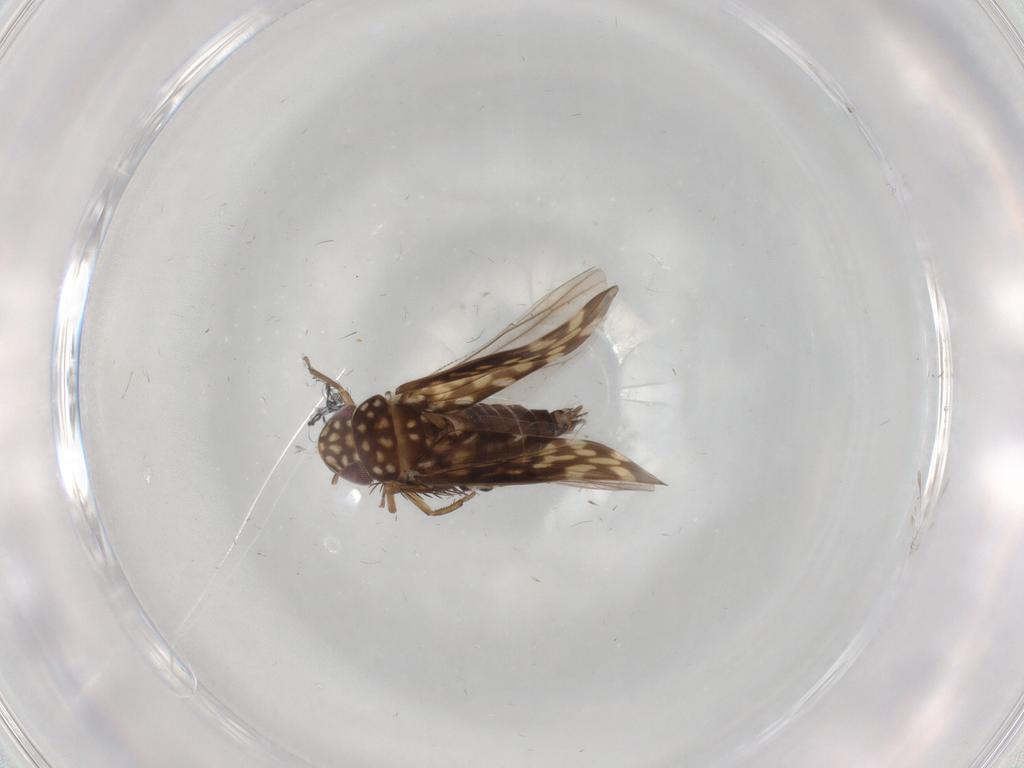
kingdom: Animalia
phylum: Arthropoda
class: Insecta
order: Hemiptera
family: Cicadellidae
